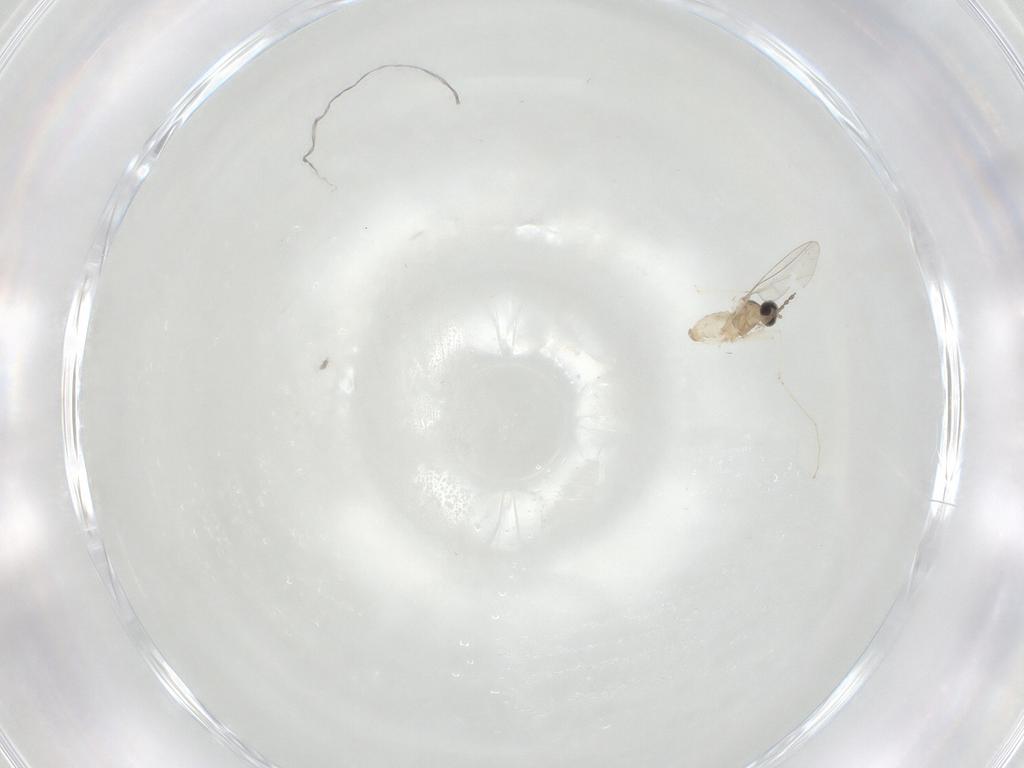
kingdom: Animalia
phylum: Arthropoda
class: Insecta
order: Diptera
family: Cecidomyiidae
